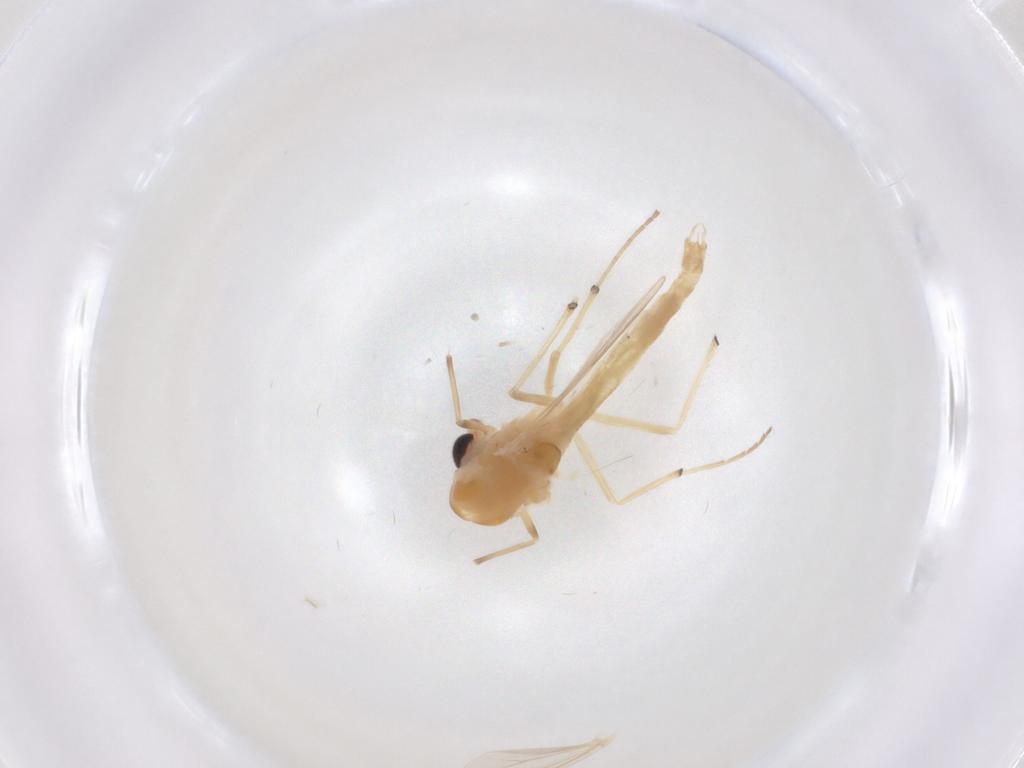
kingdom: Animalia
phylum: Arthropoda
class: Insecta
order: Diptera
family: Chironomidae
